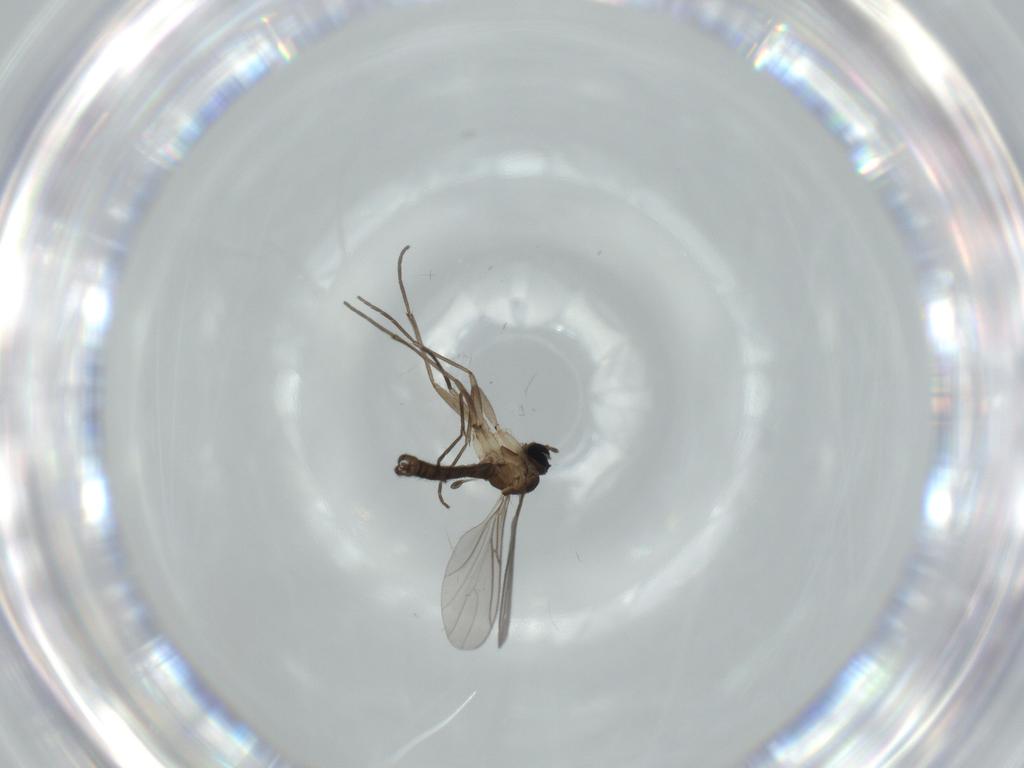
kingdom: Animalia
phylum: Arthropoda
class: Insecta
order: Diptera
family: Sciaridae
